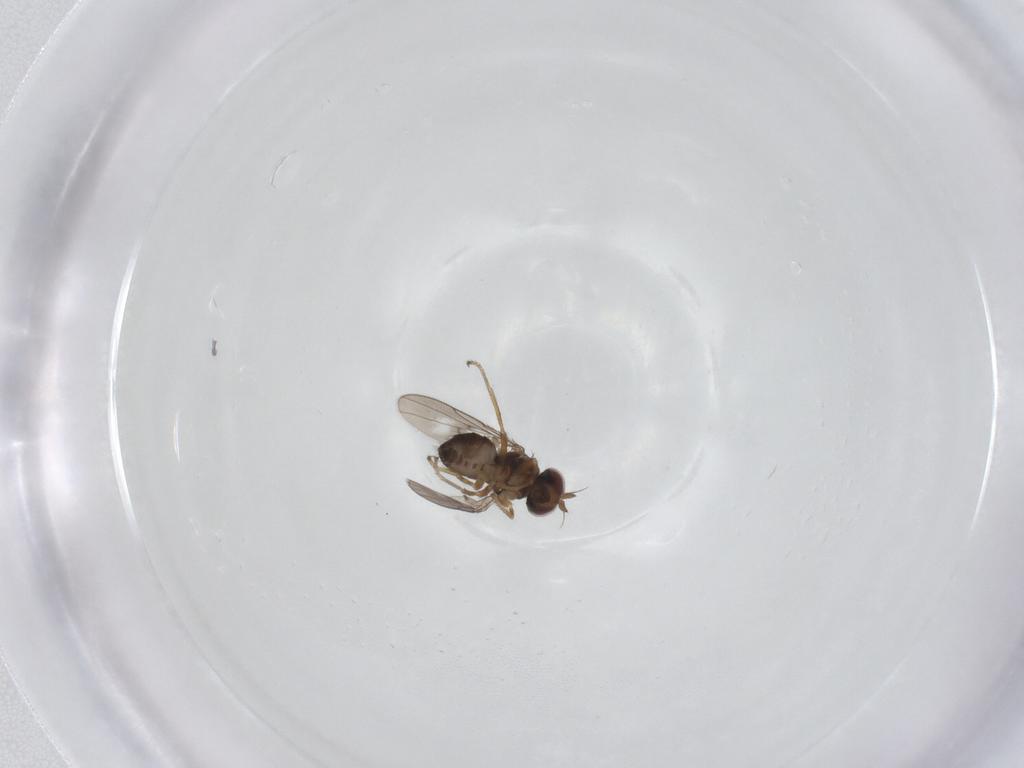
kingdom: Animalia
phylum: Arthropoda
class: Insecta
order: Diptera
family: Ephydridae
